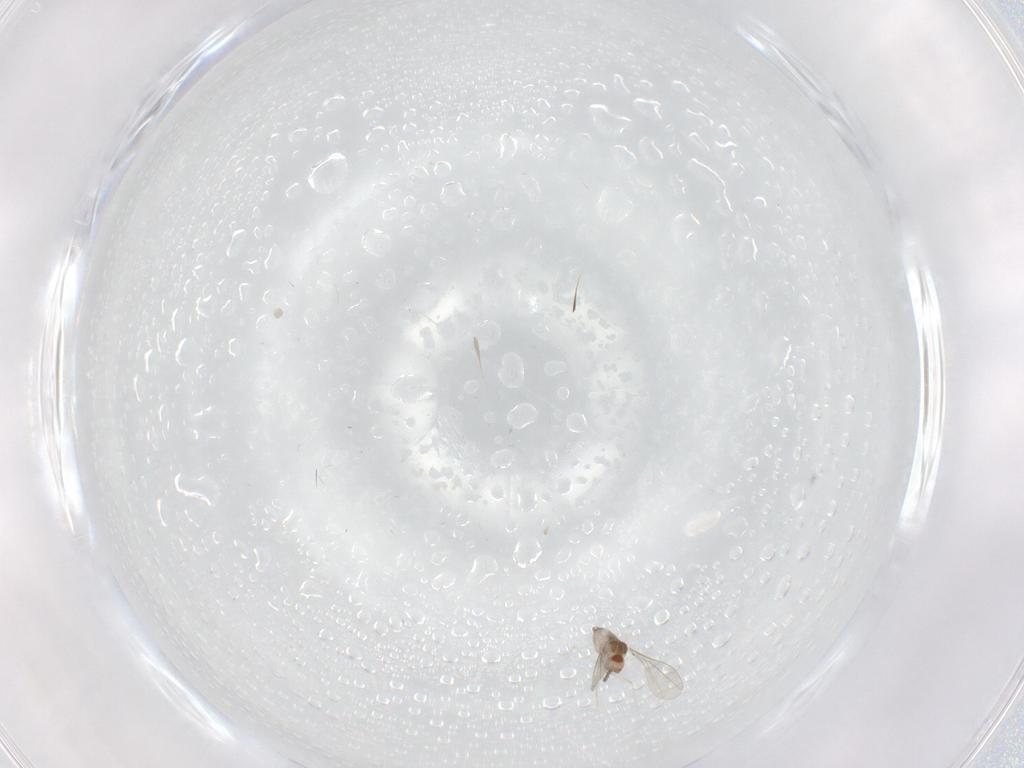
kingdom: Animalia
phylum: Arthropoda
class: Insecta
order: Diptera
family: Cecidomyiidae
